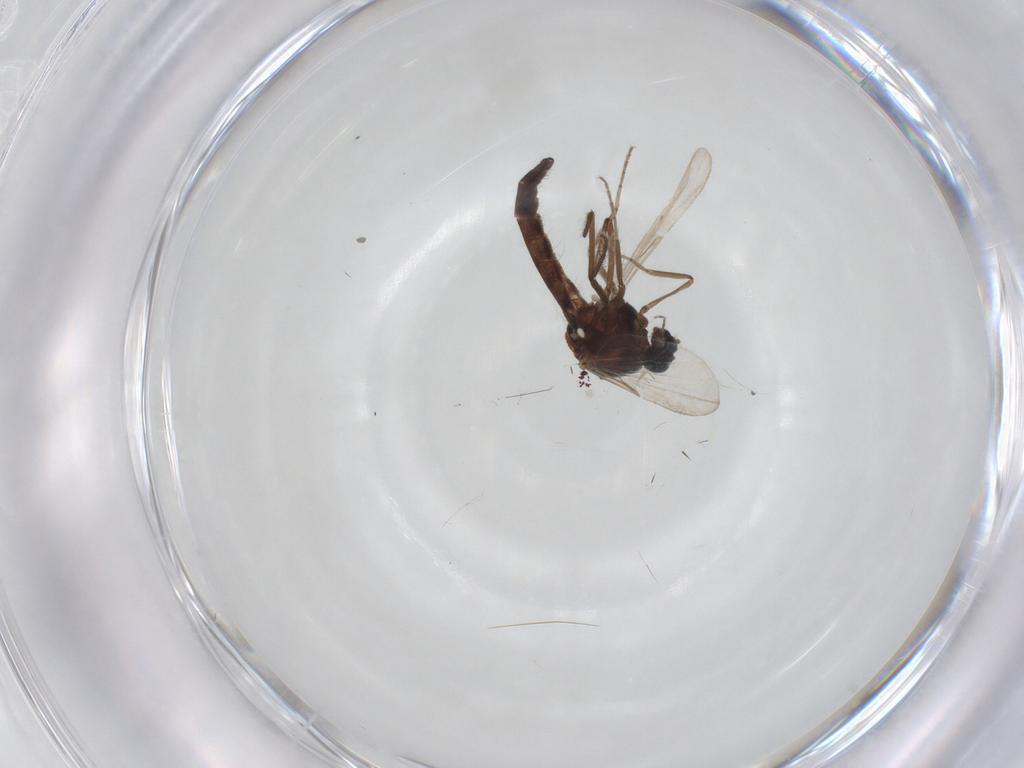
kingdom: Animalia
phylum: Arthropoda
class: Insecta
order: Diptera
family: Ceratopogonidae
